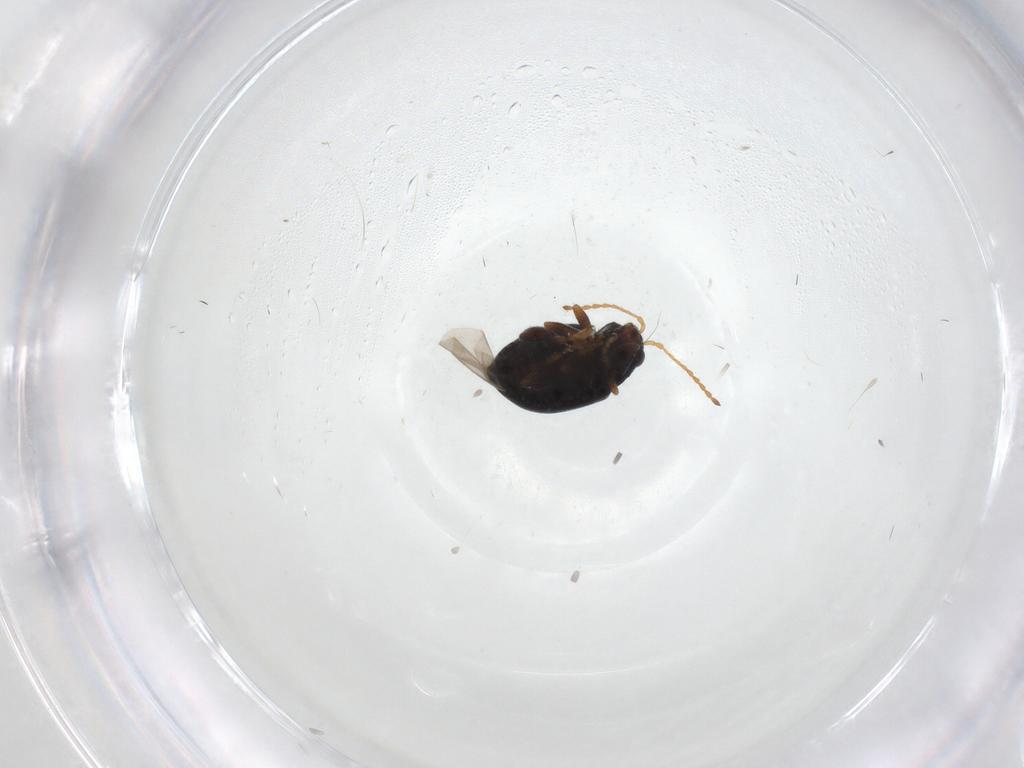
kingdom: Animalia
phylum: Arthropoda
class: Insecta
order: Coleoptera
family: Chrysomelidae
